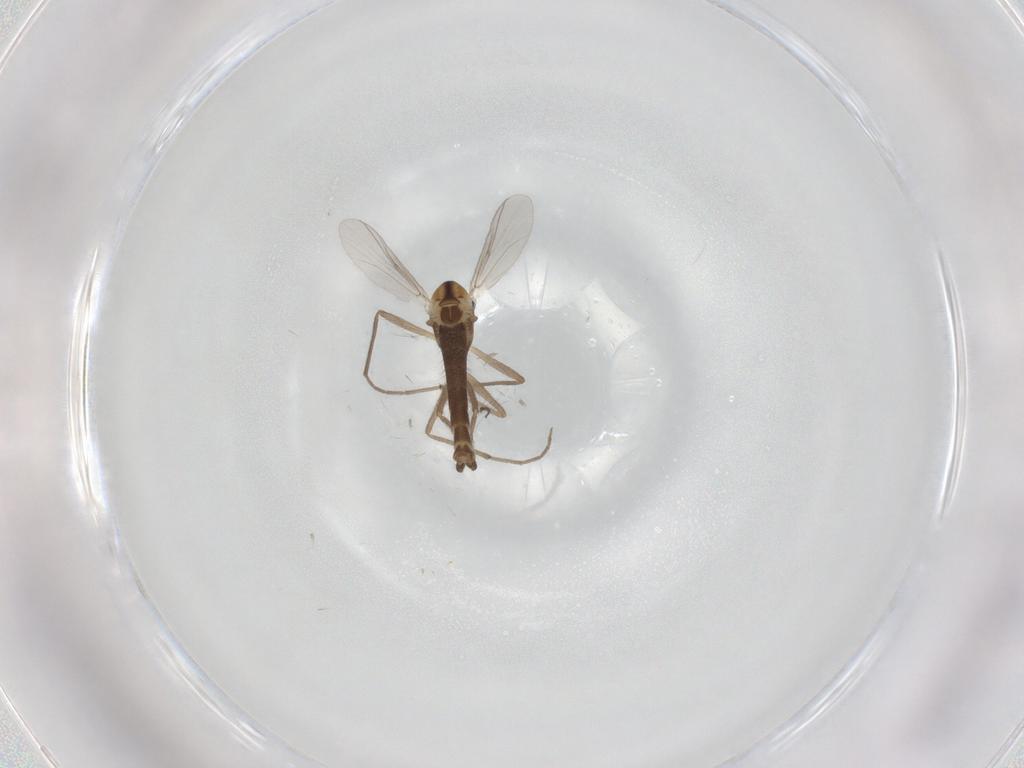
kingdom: Animalia
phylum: Arthropoda
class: Insecta
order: Diptera
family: Chironomidae
